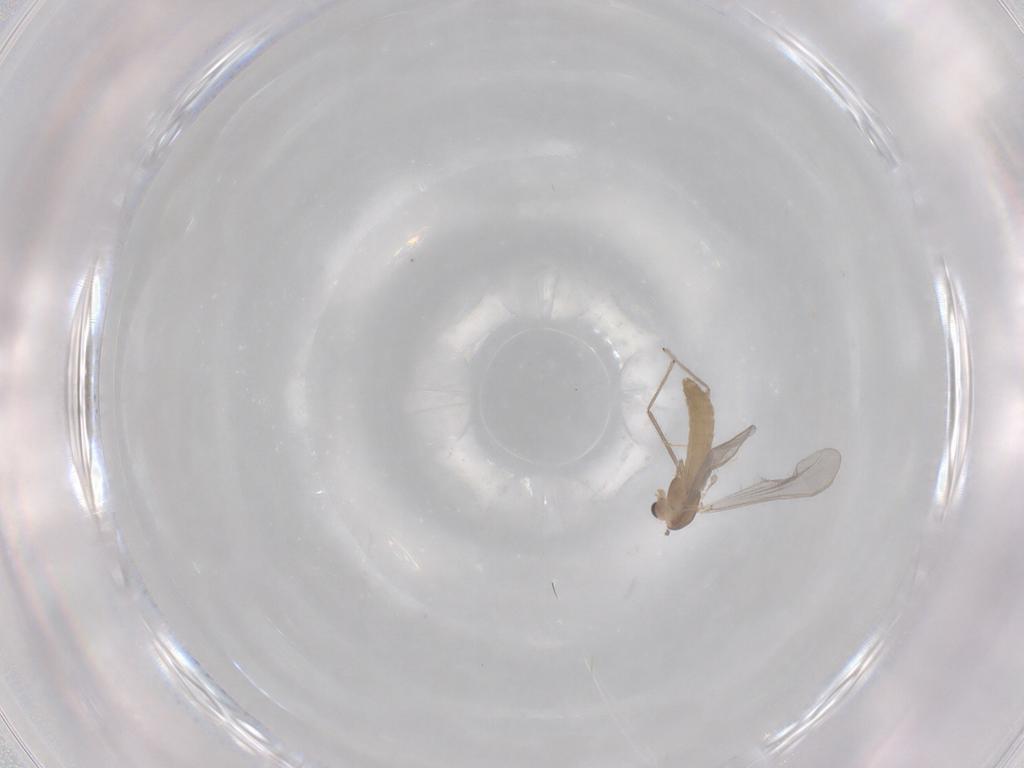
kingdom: Animalia
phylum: Arthropoda
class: Insecta
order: Diptera
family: Chironomidae
